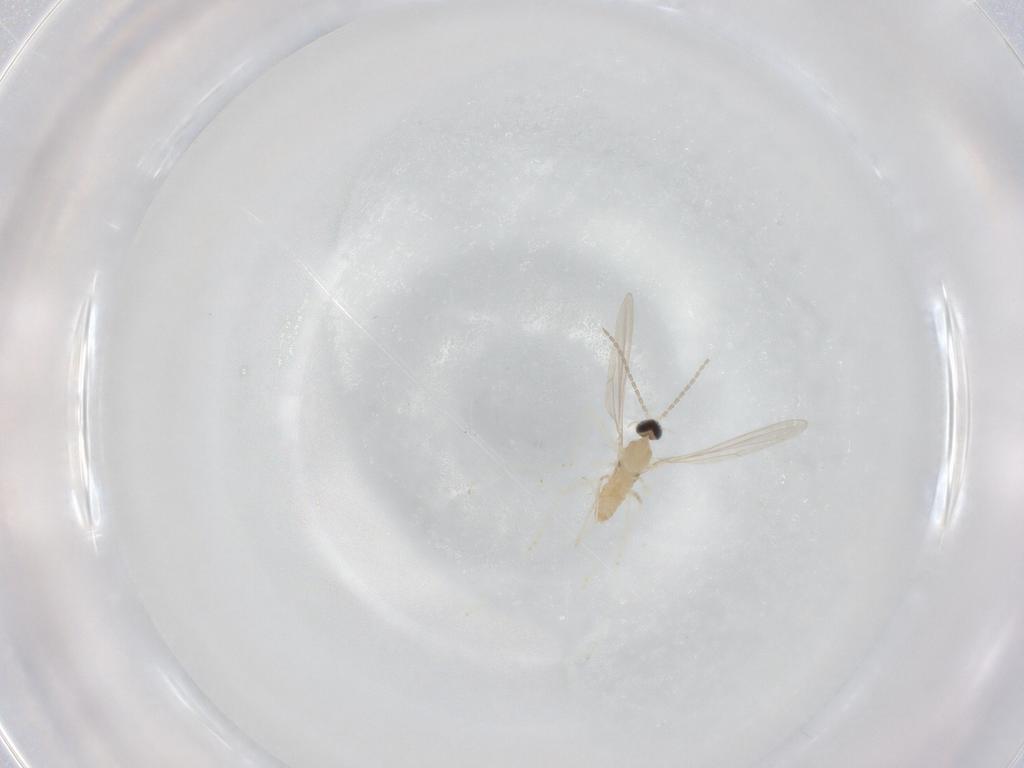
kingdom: Animalia
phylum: Arthropoda
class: Insecta
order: Diptera
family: Cecidomyiidae
